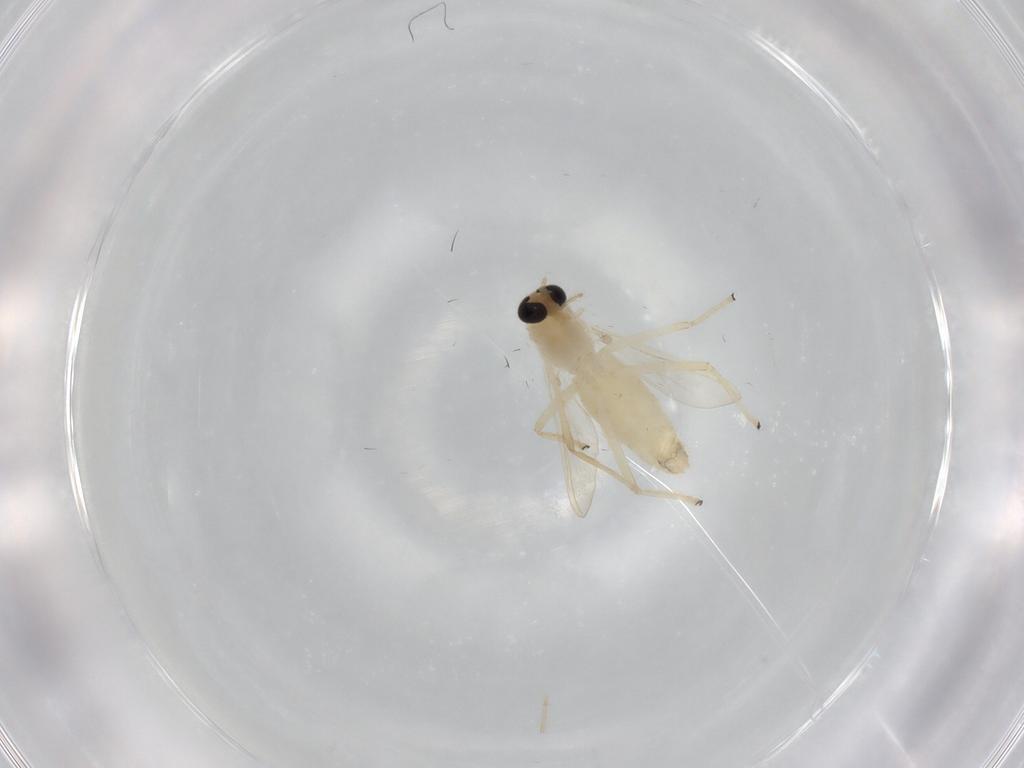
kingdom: Animalia
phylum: Arthropoda
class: Insecta
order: Diptera
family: Chironomidae
